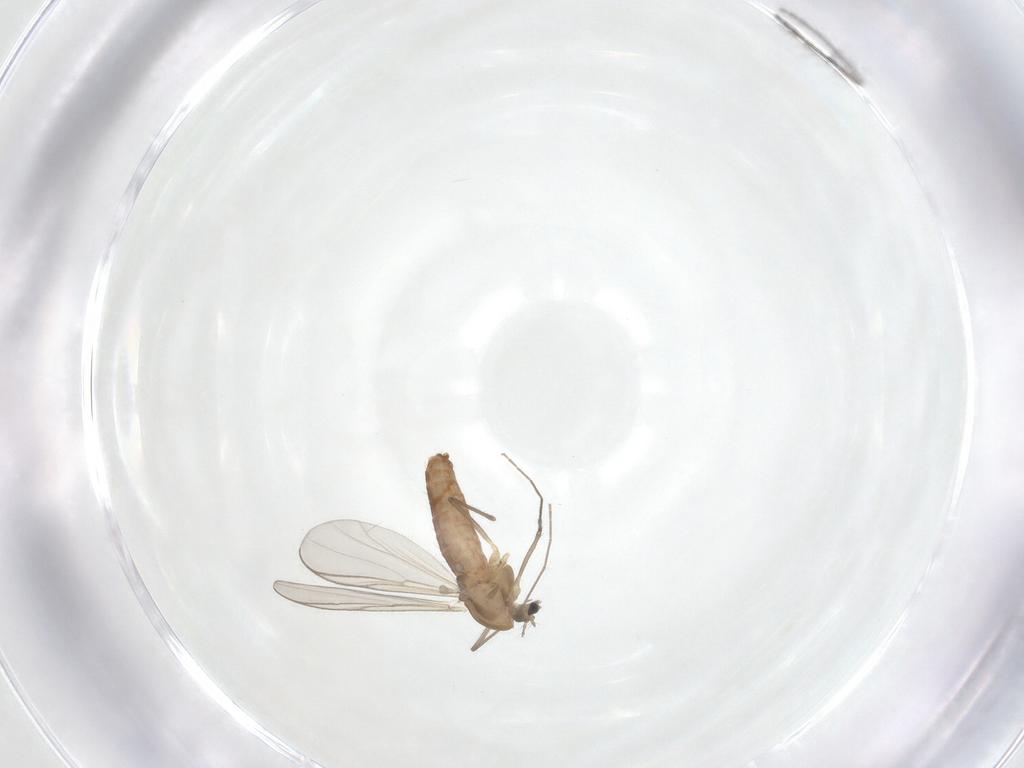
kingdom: Animalia
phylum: Arthropoda
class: Insecta
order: Diptera
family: Chironomidae
